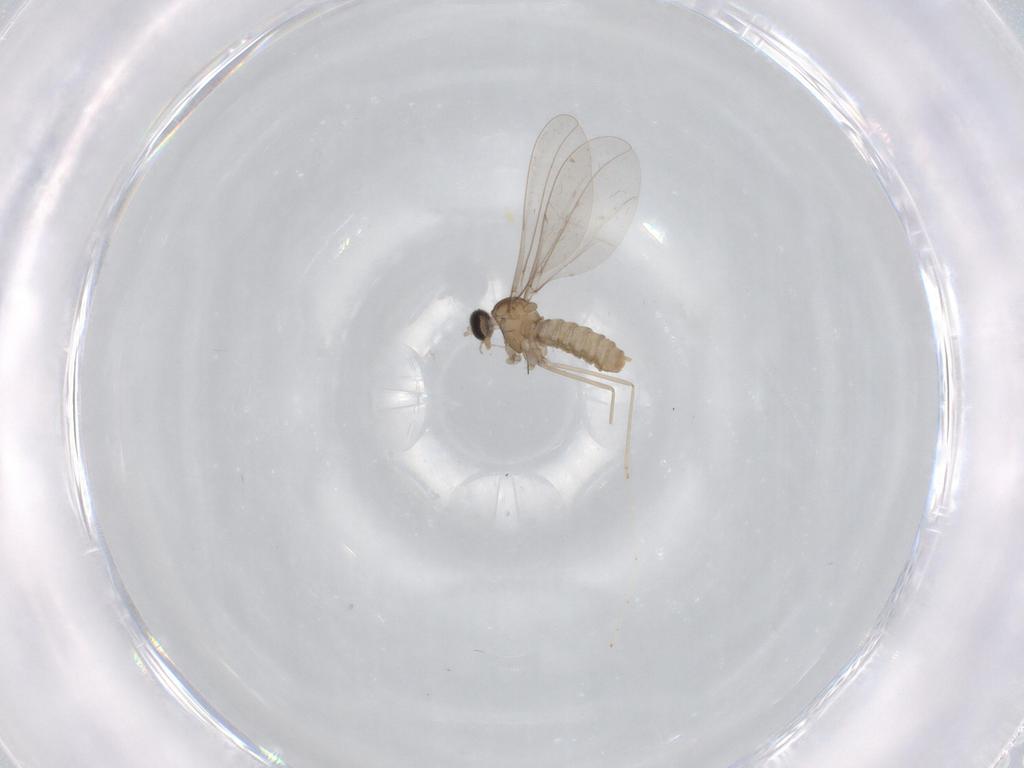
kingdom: Animalia
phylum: Arthropoda
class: Insecta
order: Diptera
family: Cecidomyiidae
